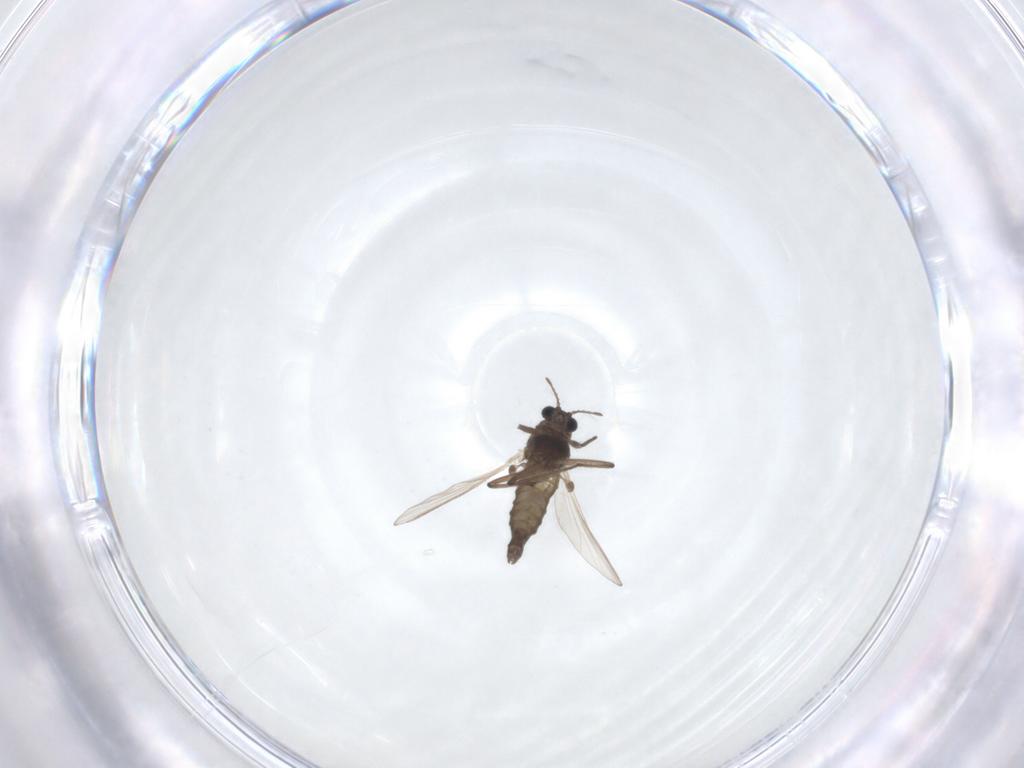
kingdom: Animalia
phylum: Arthropoda
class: Insecta
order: Diptera
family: Chironomidae
